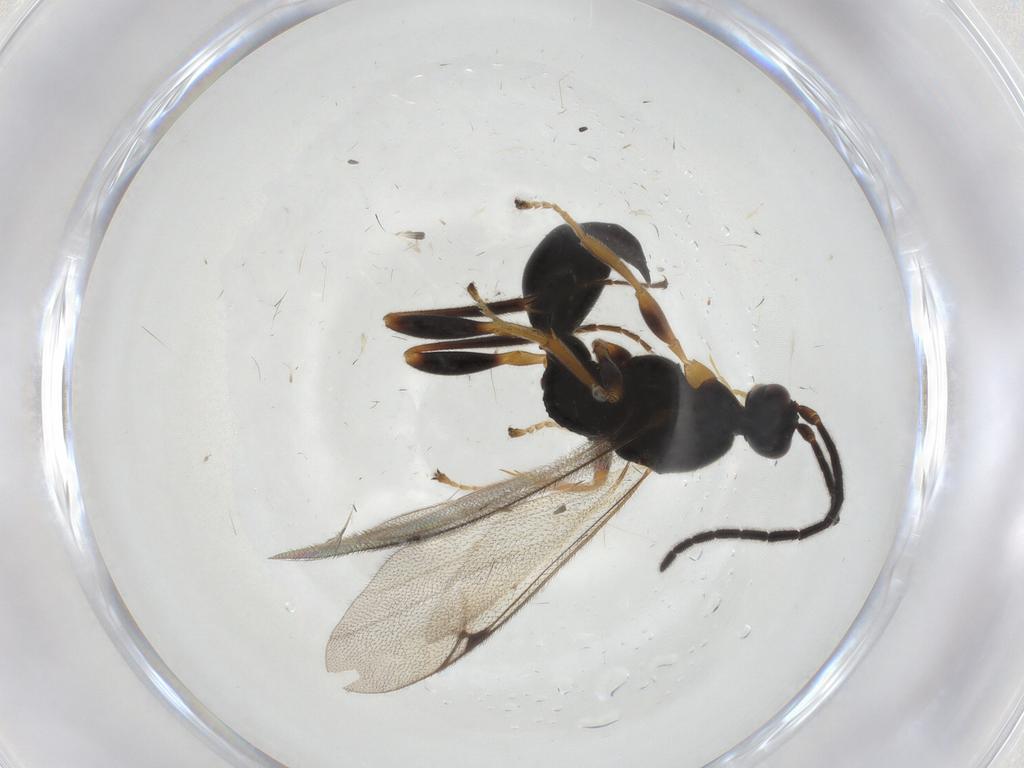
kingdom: Animalia
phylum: Arthropoda
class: Insecta
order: Hymenoptera
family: Proctotrupidae
